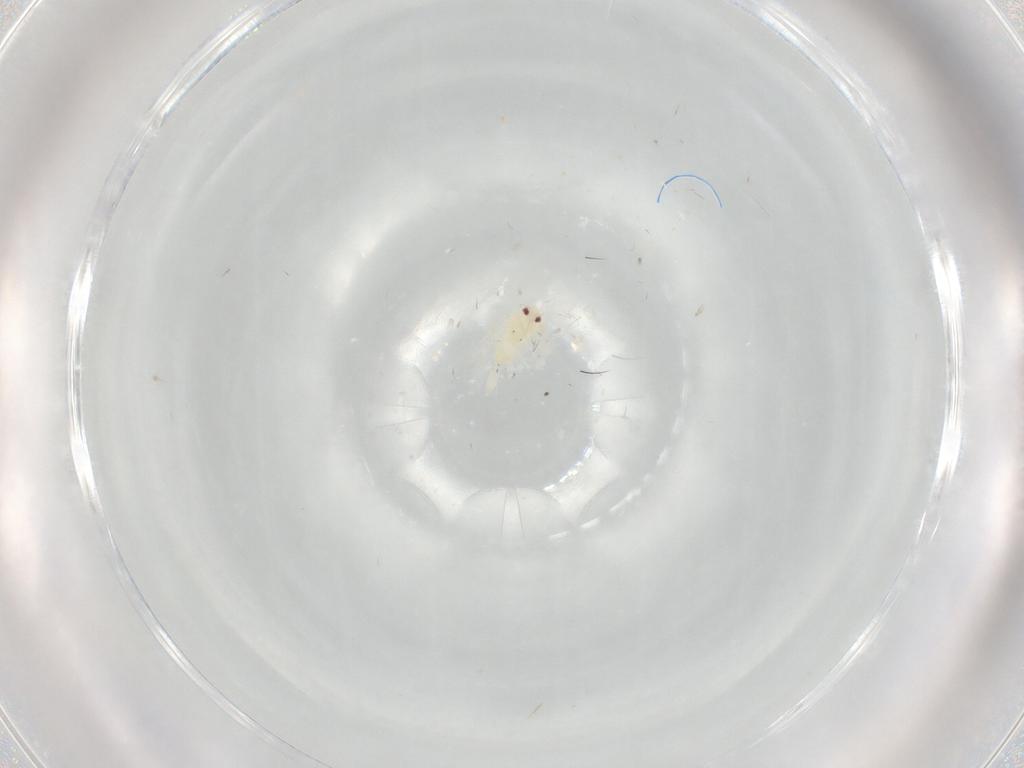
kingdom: Animalia
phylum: Arthropoda
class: Insecta
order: Hemiptera
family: Aleyrodidae
